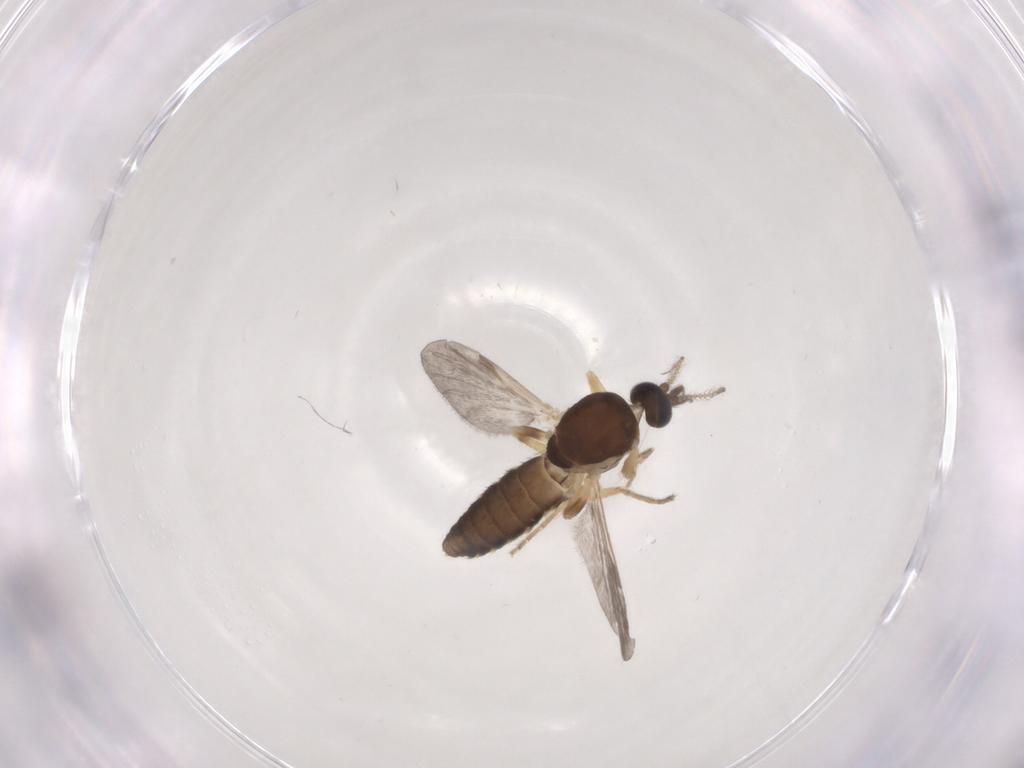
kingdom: Animalia
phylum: Arthropoda
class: Insecta
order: Diptera
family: Ceratopogonidae
